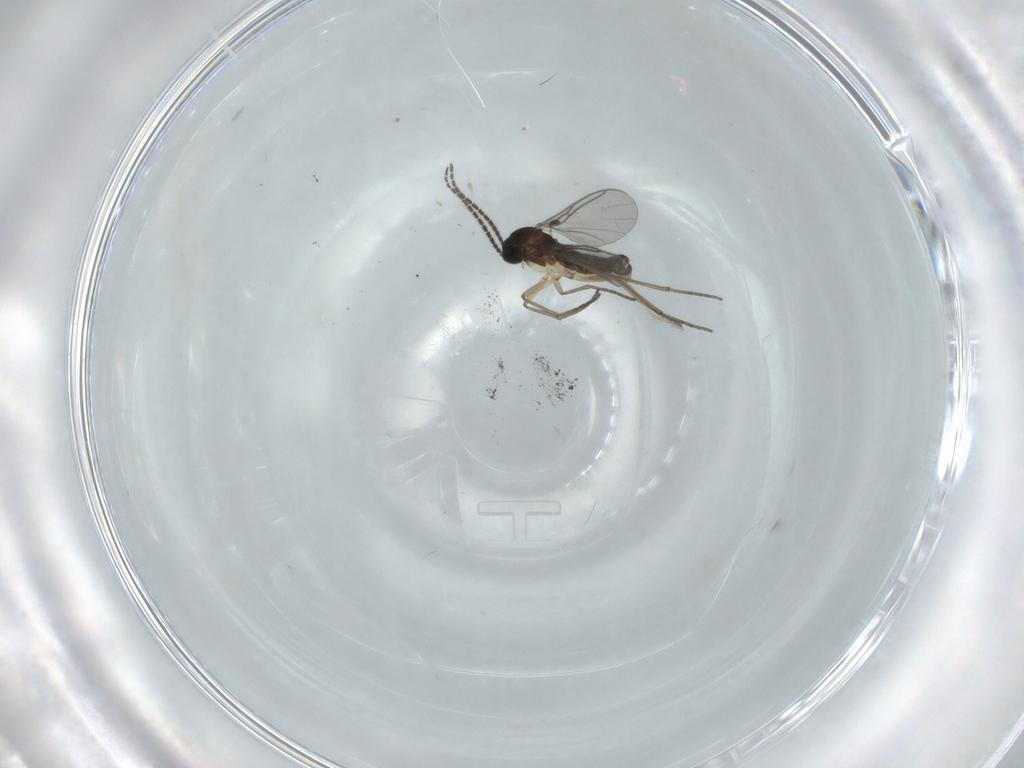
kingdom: Animalia
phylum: Arthropoda
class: Insecta
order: Diptera
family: Sciaridae
